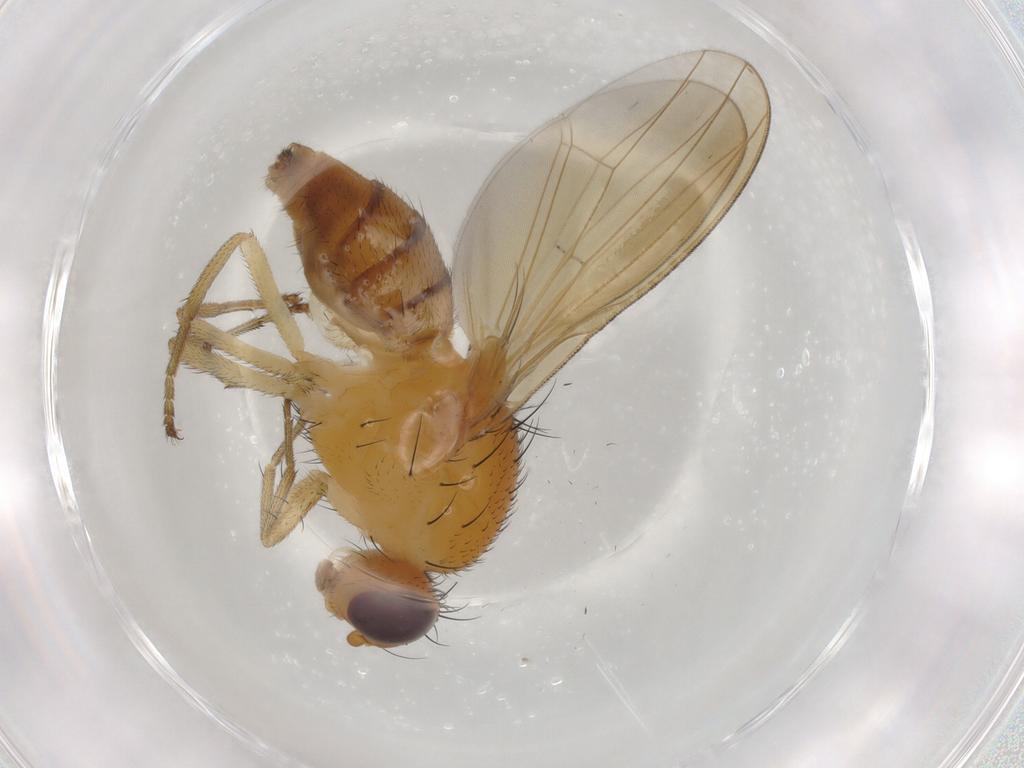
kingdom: Animalia
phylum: Arthropoda
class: Insecta
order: Diptera
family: Lauxaniidae
